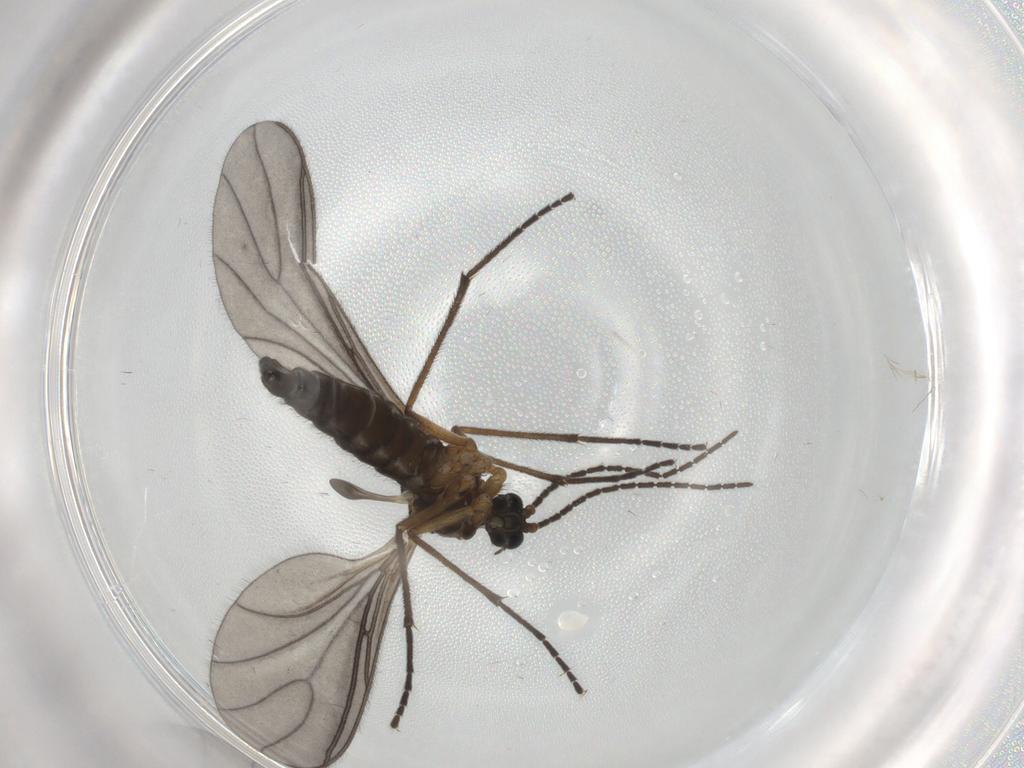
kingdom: Animalia
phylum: Arthropoda
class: Insecta
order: Diptera
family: Sciaridae
